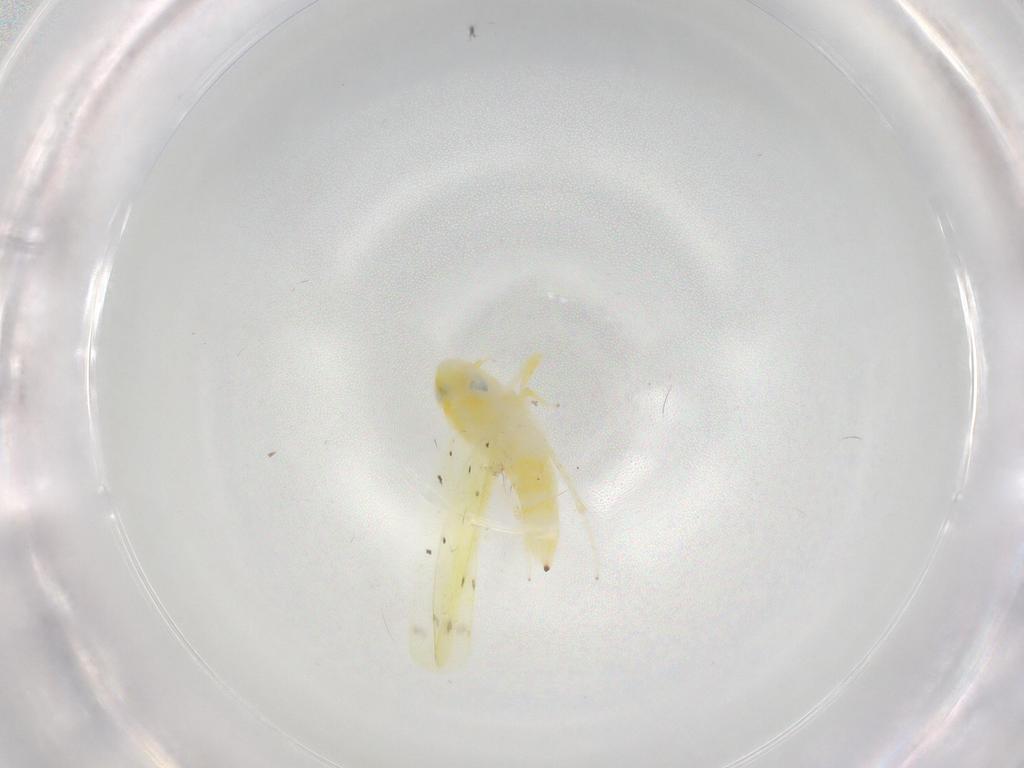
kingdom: Animalia
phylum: Arthropoda
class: Insecta
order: Hemiptera
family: Cicadellidae
